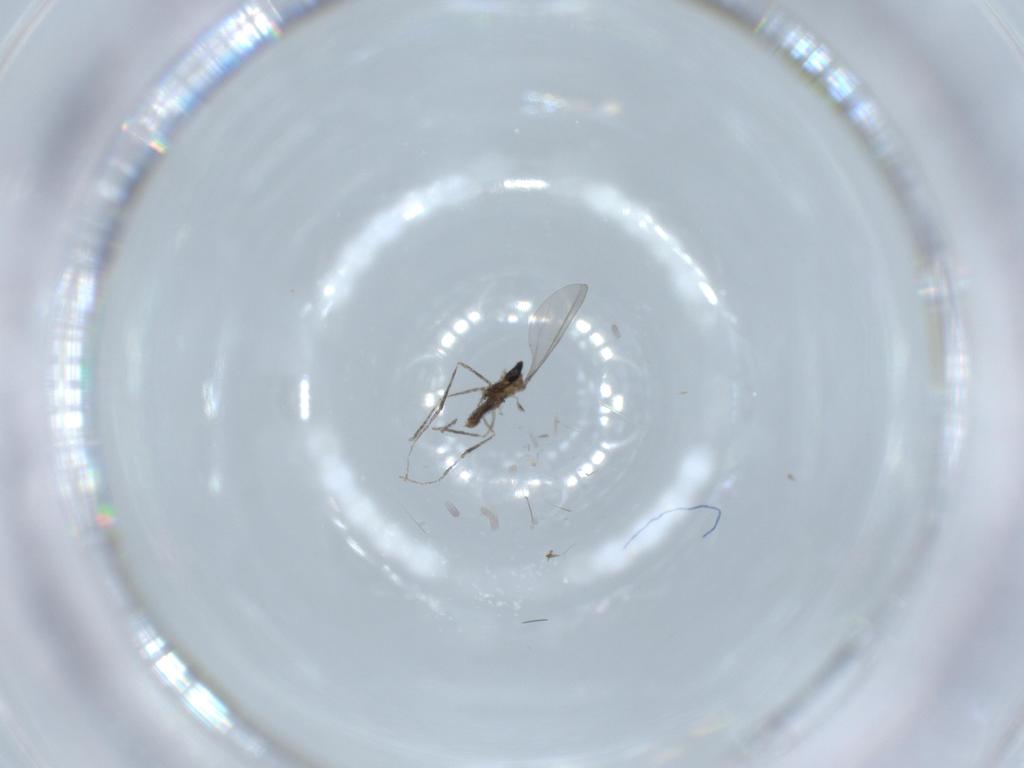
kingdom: Animalia
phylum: Arthropoda
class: Insecta
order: Diptera
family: Cecidomyiidae
